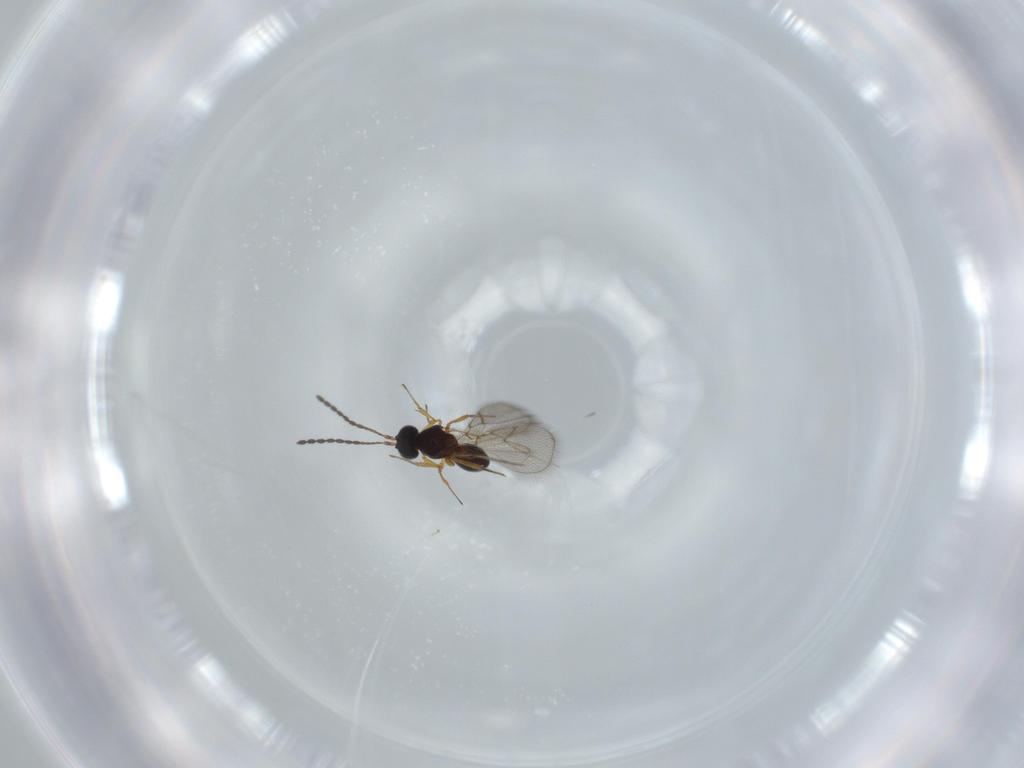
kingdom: Animalia
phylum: Arthropoda
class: Insecta
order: Hymenoptera
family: Figitidae
